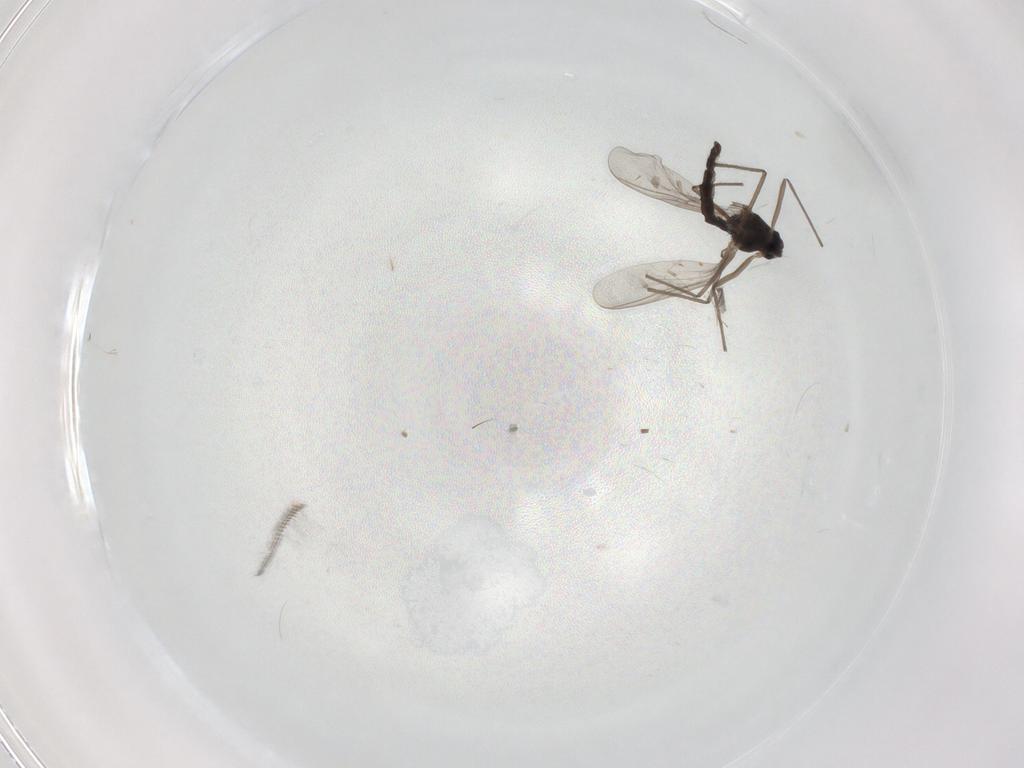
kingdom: Animalia
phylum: Arthropoda
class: Insecta
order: Diptera
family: Chironomidae
